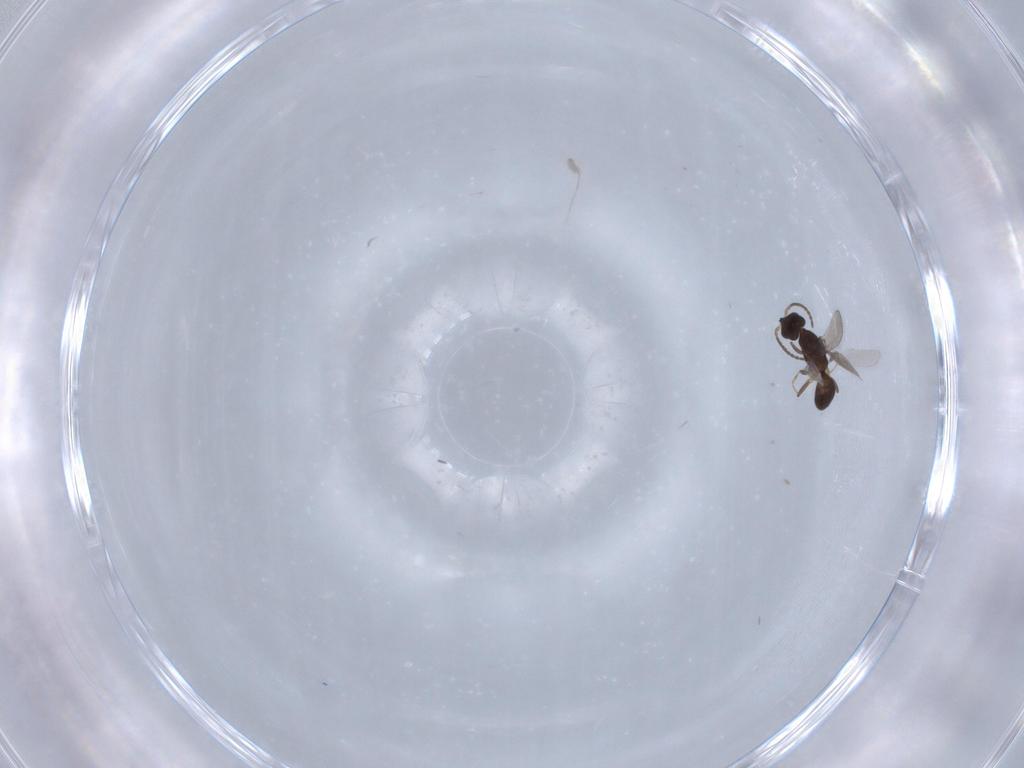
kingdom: Animalia
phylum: Arthropoda
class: Insecta
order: Hymenoptera
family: Bethylidae
